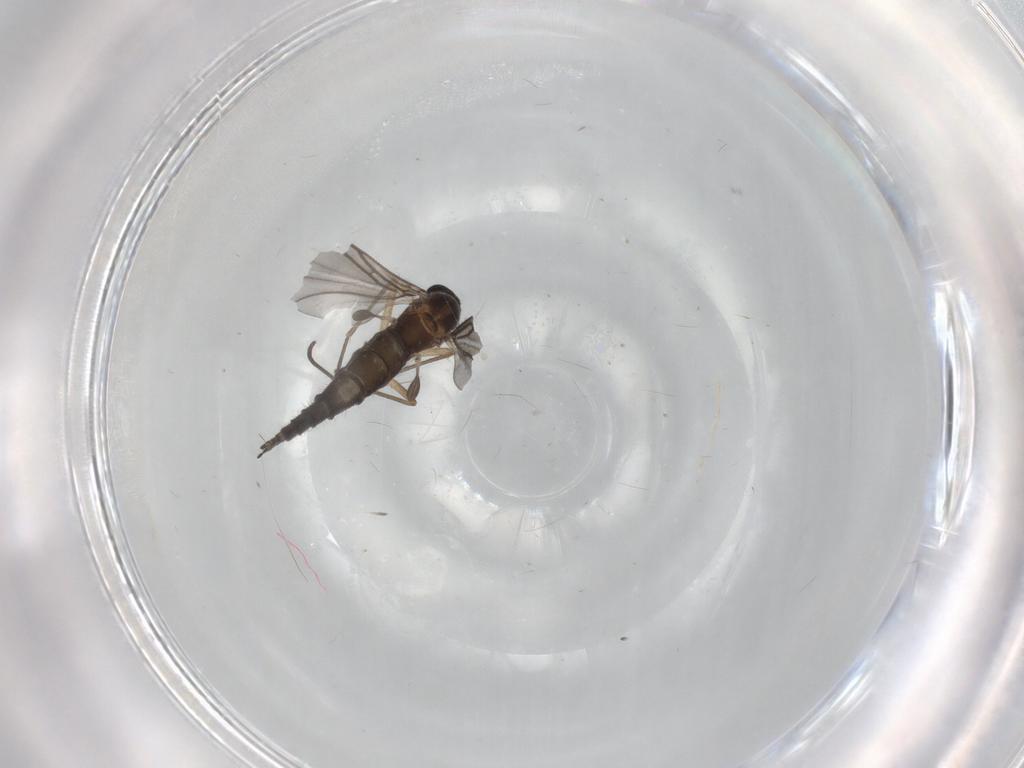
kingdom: Animalia
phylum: Arthropoda
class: Insecta
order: Diptera
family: Sciaridae
